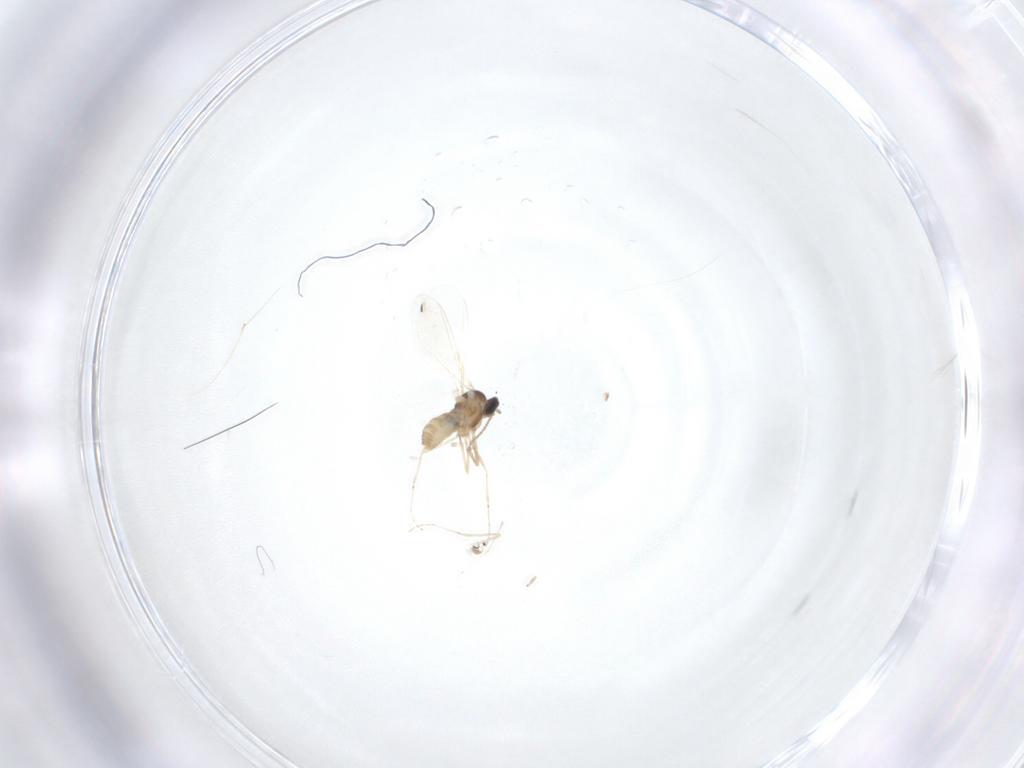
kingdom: Animalia
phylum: Arthropoda
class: Insecta
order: Diptera
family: Cecidomyiidae
